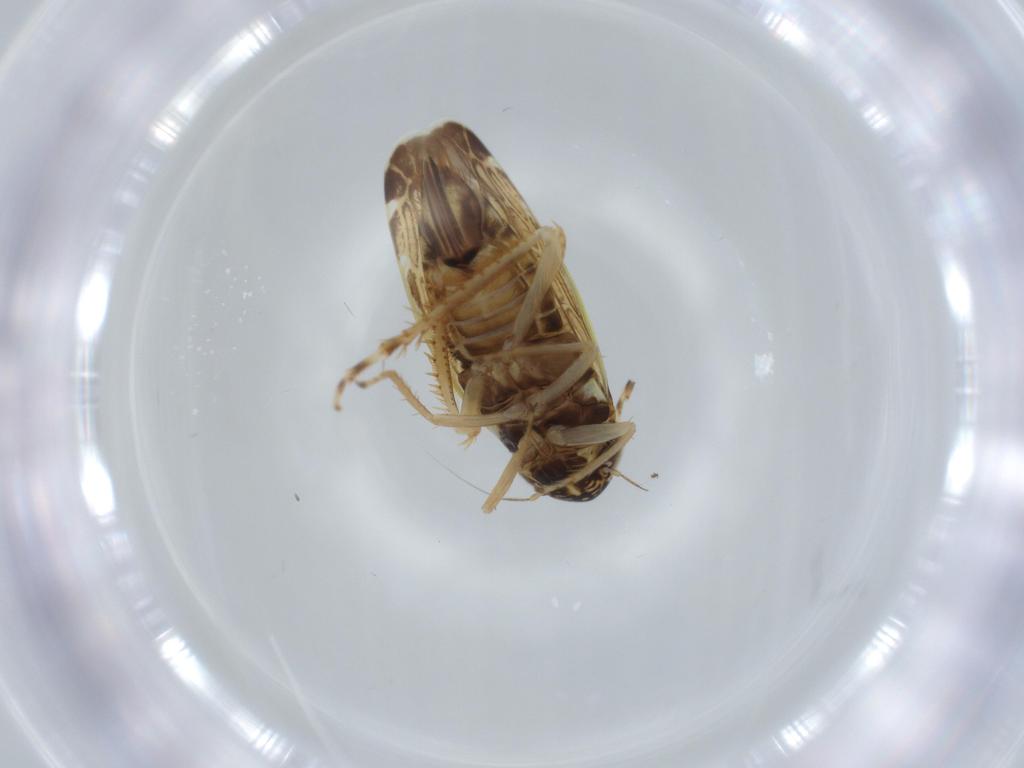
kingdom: Animalia
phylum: Arthropoda
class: Insecta
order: Hemiptera
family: Cicadellidae
